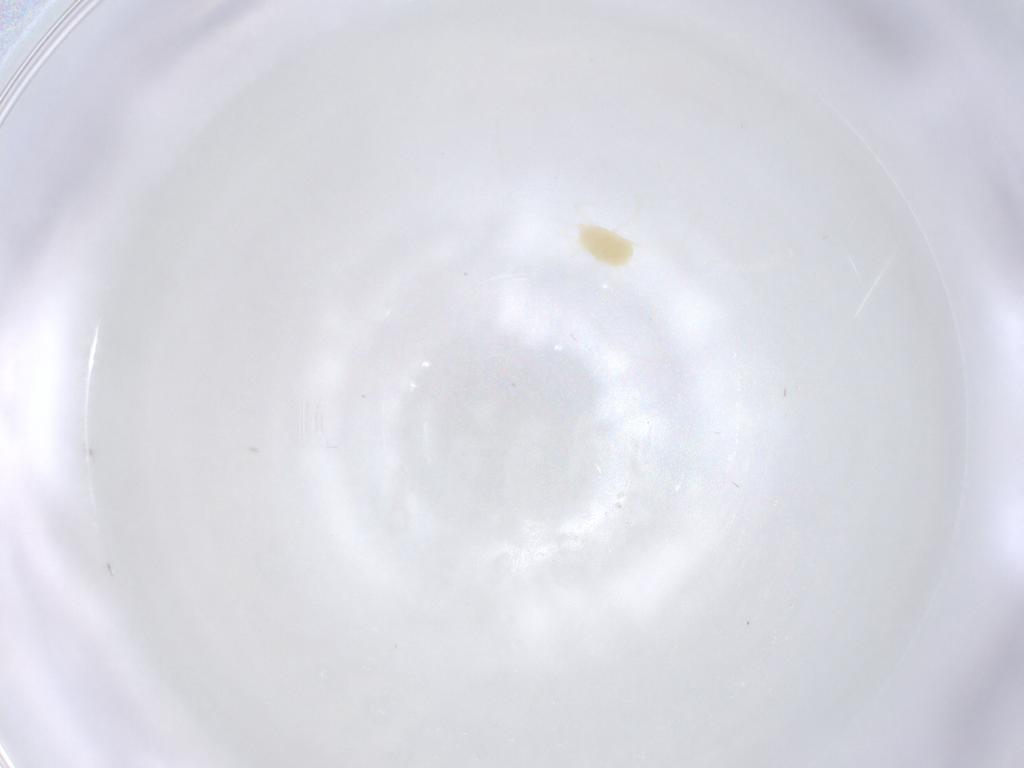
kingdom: Animalia
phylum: Arthropoda
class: Arachnida
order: Trombidiformes
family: Tetranychidae
